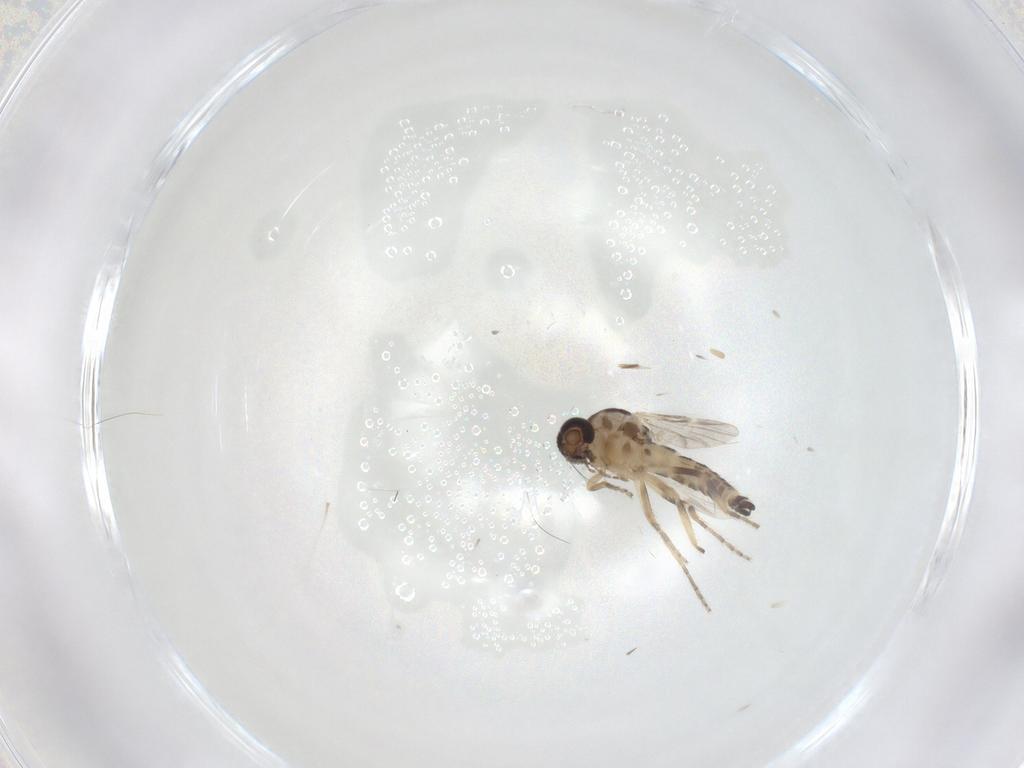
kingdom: Animalia
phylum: Arthropoda
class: Insecta
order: Diptera
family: Ceratopogonidae
